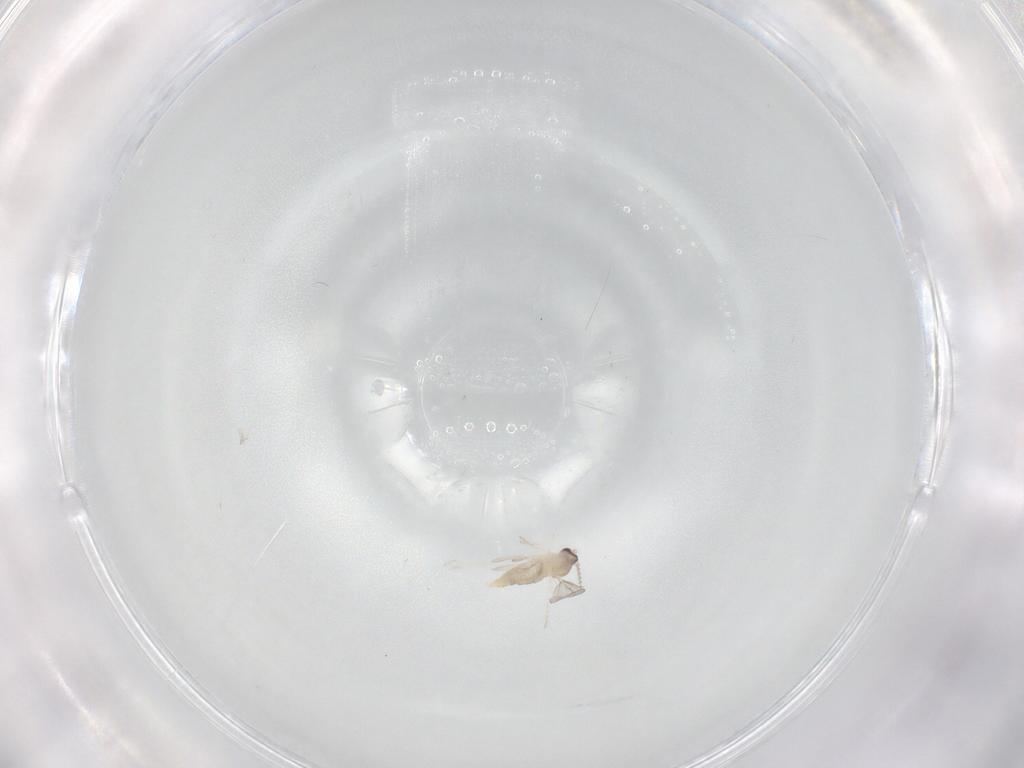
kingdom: Animalia
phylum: Arthropoda
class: Insecta
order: Diptera
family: Cecidomyiidae
